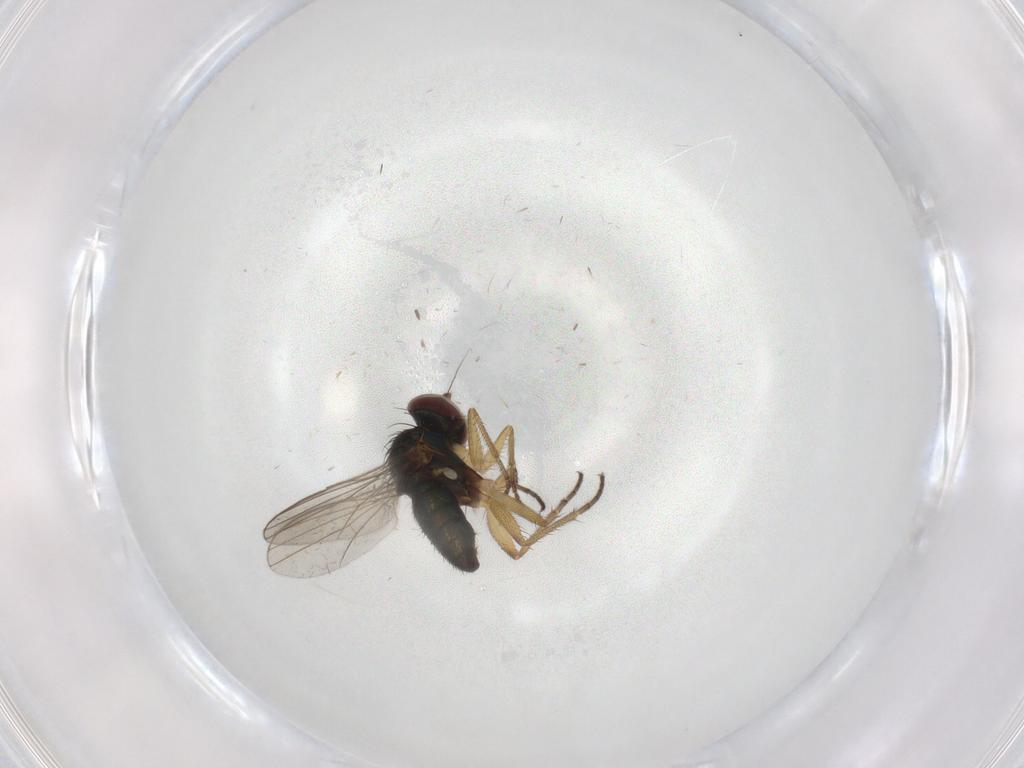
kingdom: Animalia
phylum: Arthropoda
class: Insecta
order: Diptera
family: Dolichopodidae
